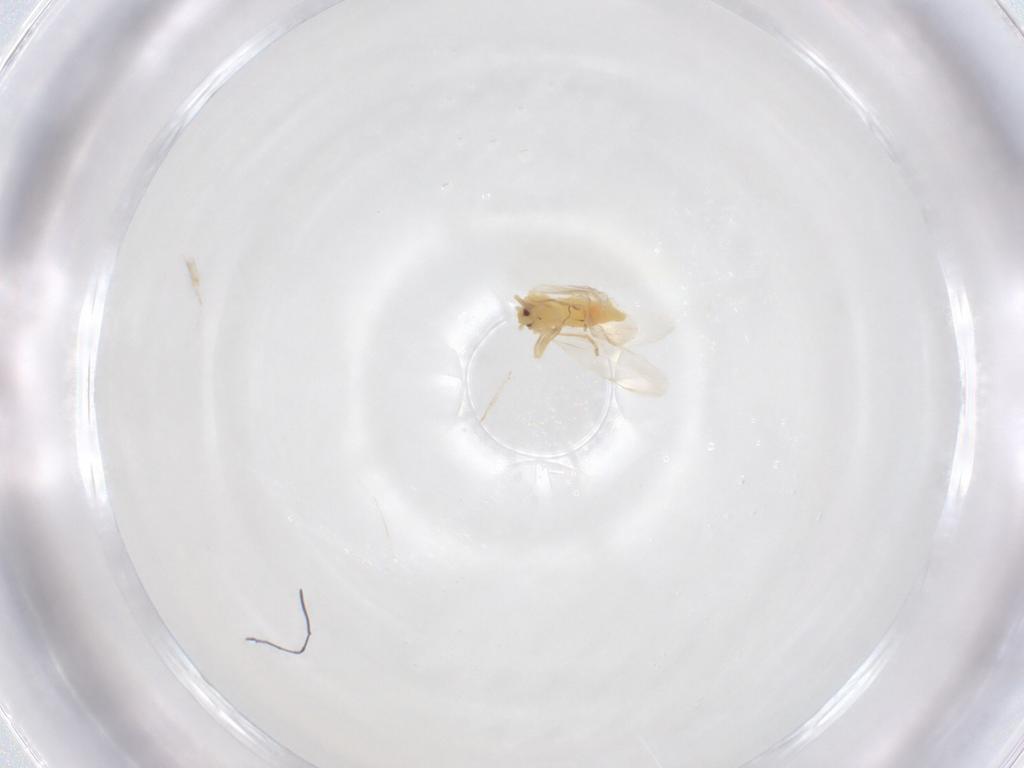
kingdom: Animalia
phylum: Arthropoda
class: Insecta
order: Hemiptera
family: Aleyrodidae
